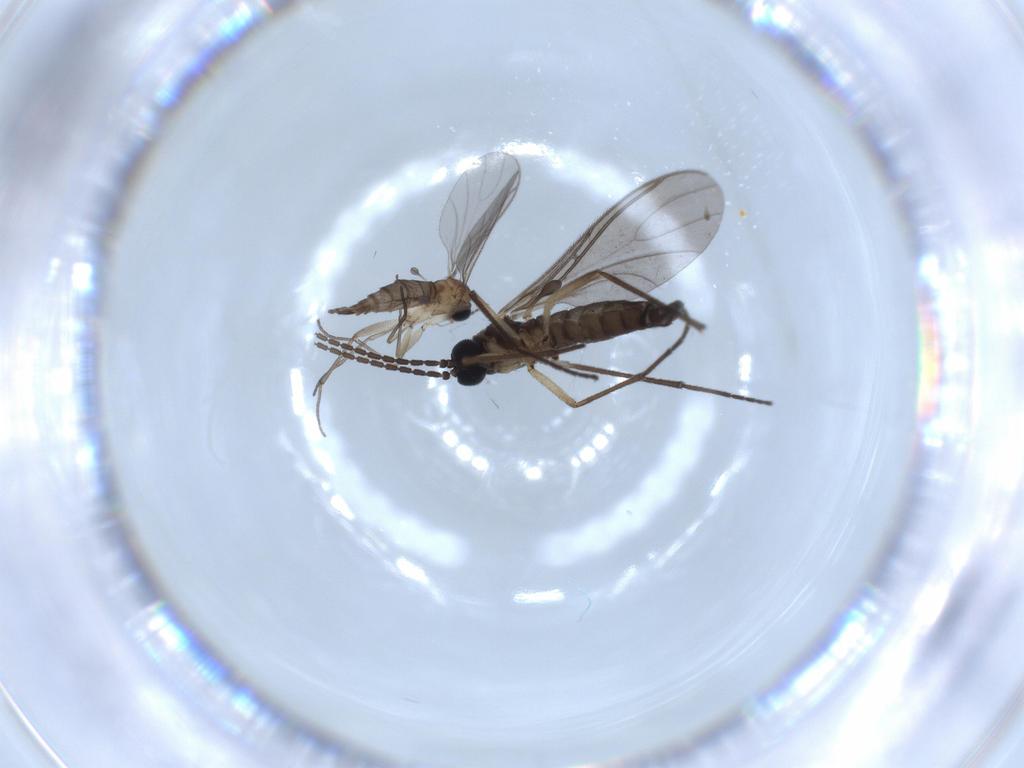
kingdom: Animalia
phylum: Arthropoda
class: Insecta
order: Diptera
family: Sciaridae
